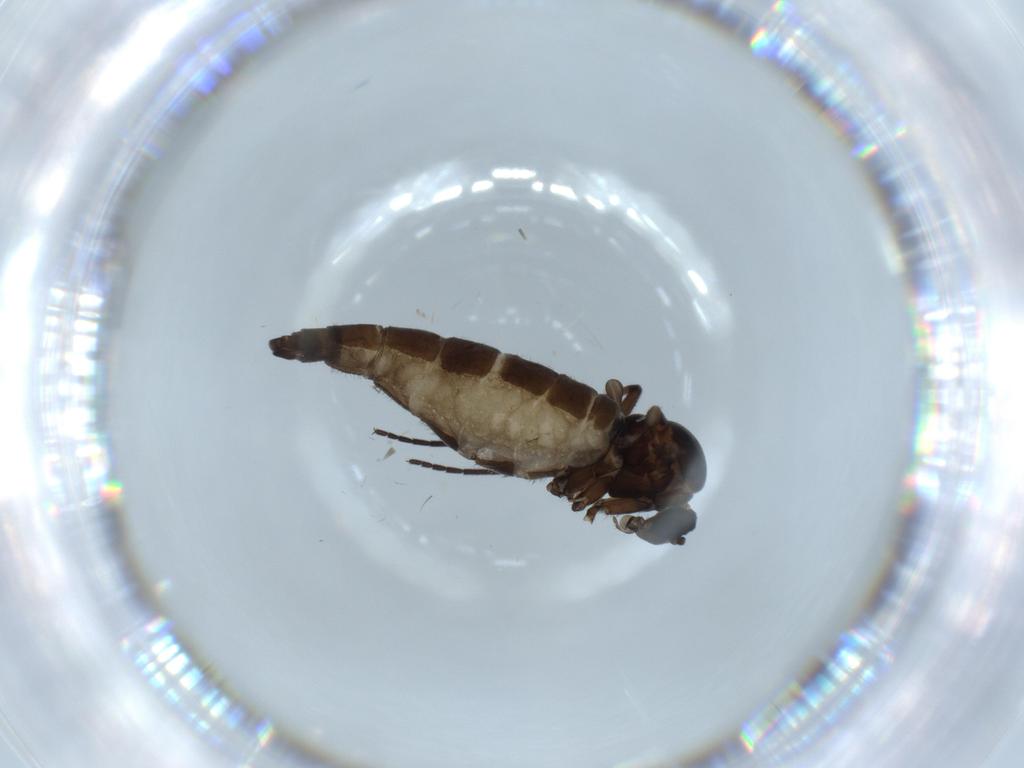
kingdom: Animalia
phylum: Arthropoda
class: Insecta
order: Diptera
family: Sciaridae
